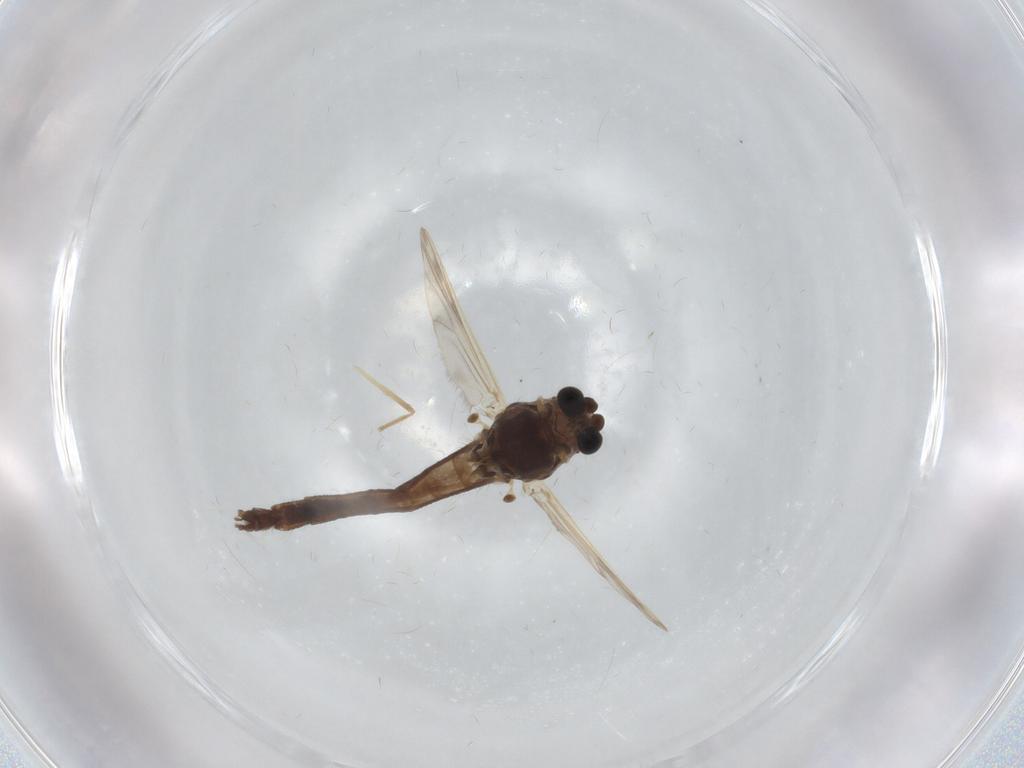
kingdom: Animalia
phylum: Arthropoda
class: Insecta
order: Diptera
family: Chironomidae
